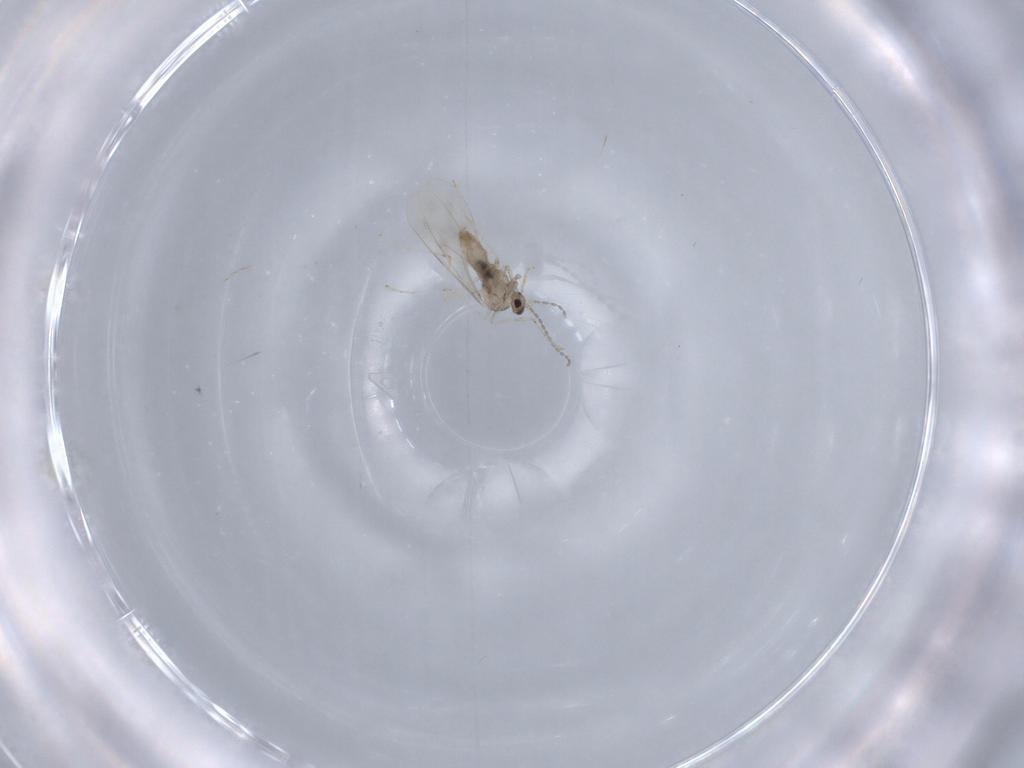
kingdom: Animalia
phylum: Arthropoda
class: Insecta
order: Diptera
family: Cecidomyiidae
